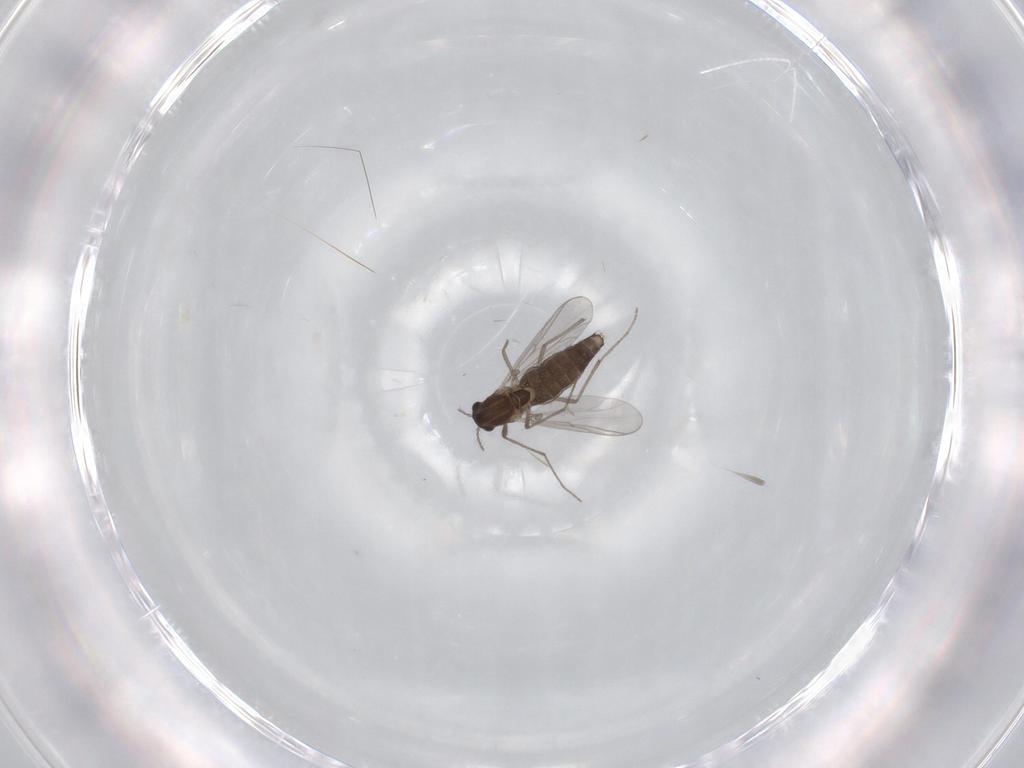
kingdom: Animalia
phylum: Arthropoda
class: Insecta
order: Diptera
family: Chironomidae
